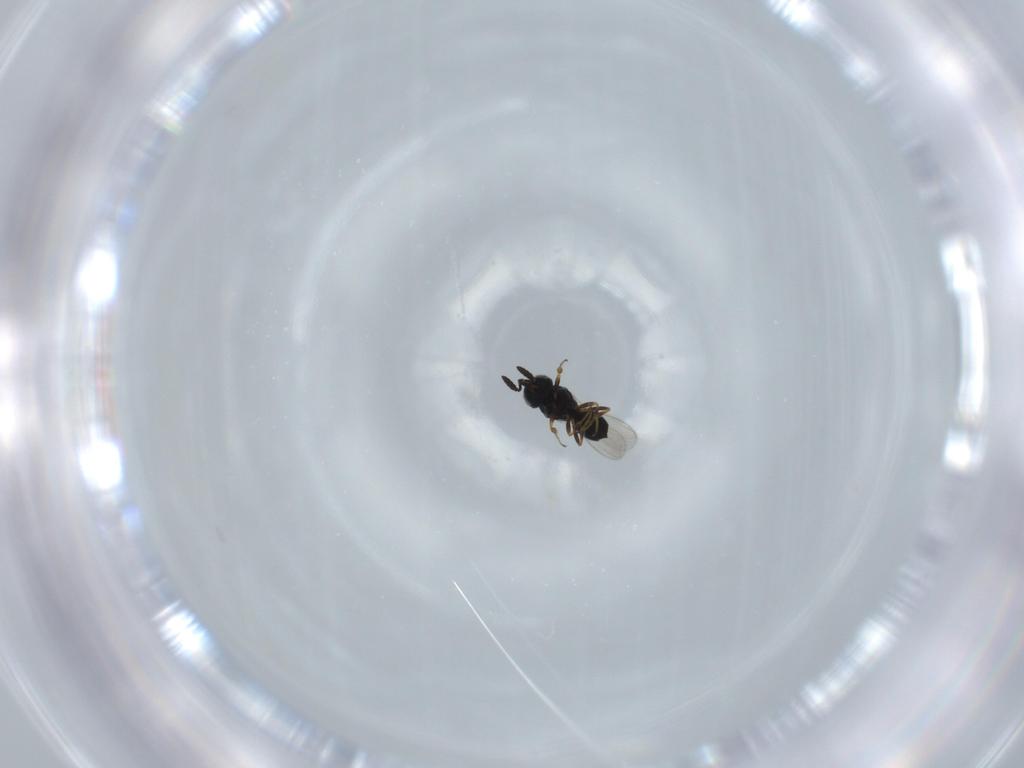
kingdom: Animalia
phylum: Arthropoda
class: Insecta
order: Hymenoptera
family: Scelionidae
